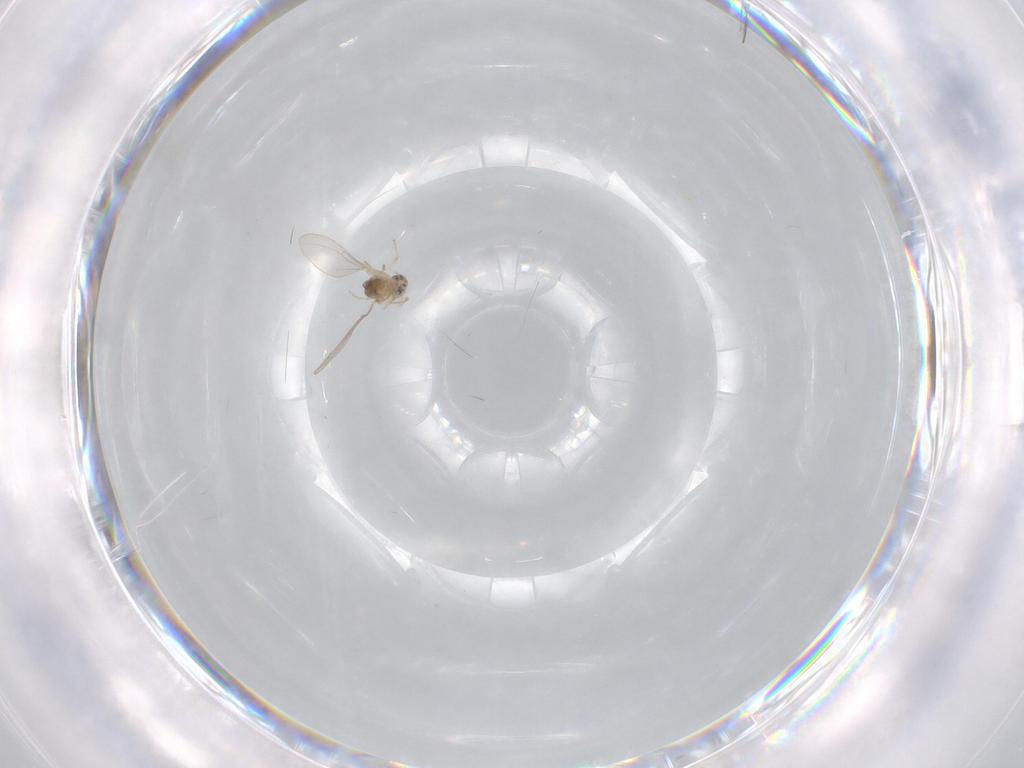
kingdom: Animalia
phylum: Arthropoda
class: Insecta
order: Diptera
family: Cecidomyiidae
